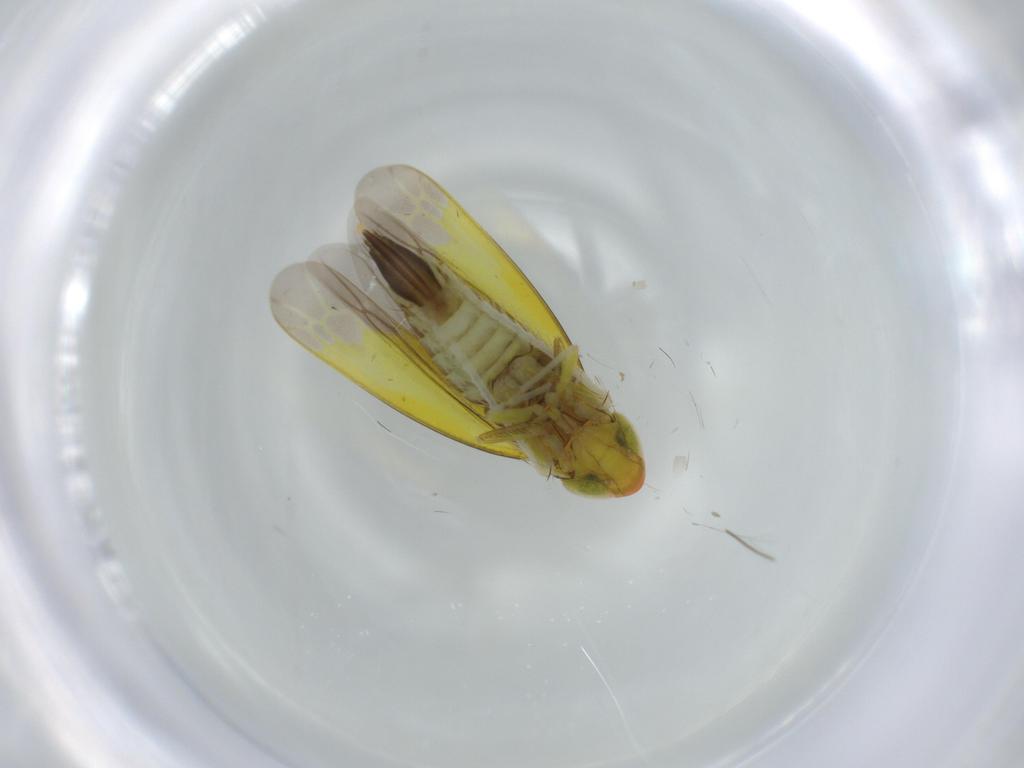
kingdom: Animalia
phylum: Arthropoda
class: Insecta
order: Hemiptera
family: Cicadellidae
